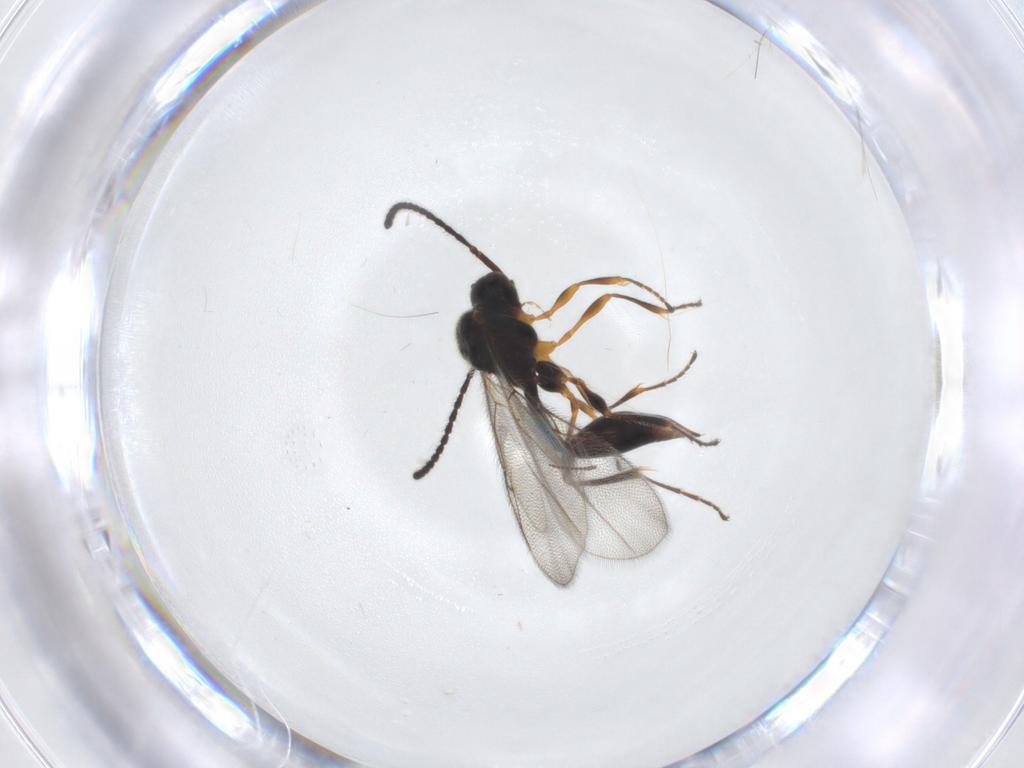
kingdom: Animalia
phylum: Arthropoda
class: Insecta
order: Hymenoptera
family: Diapriidae
